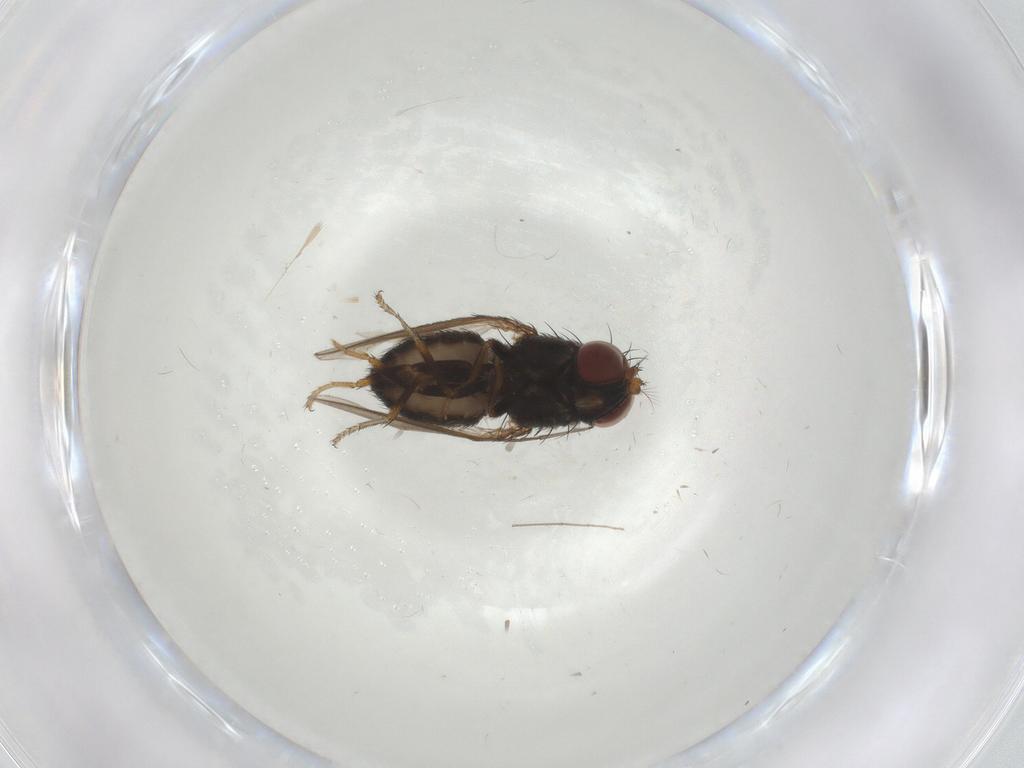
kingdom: Animalia
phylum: Arthropoda
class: Insecta
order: Diptera
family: Sciaridae
